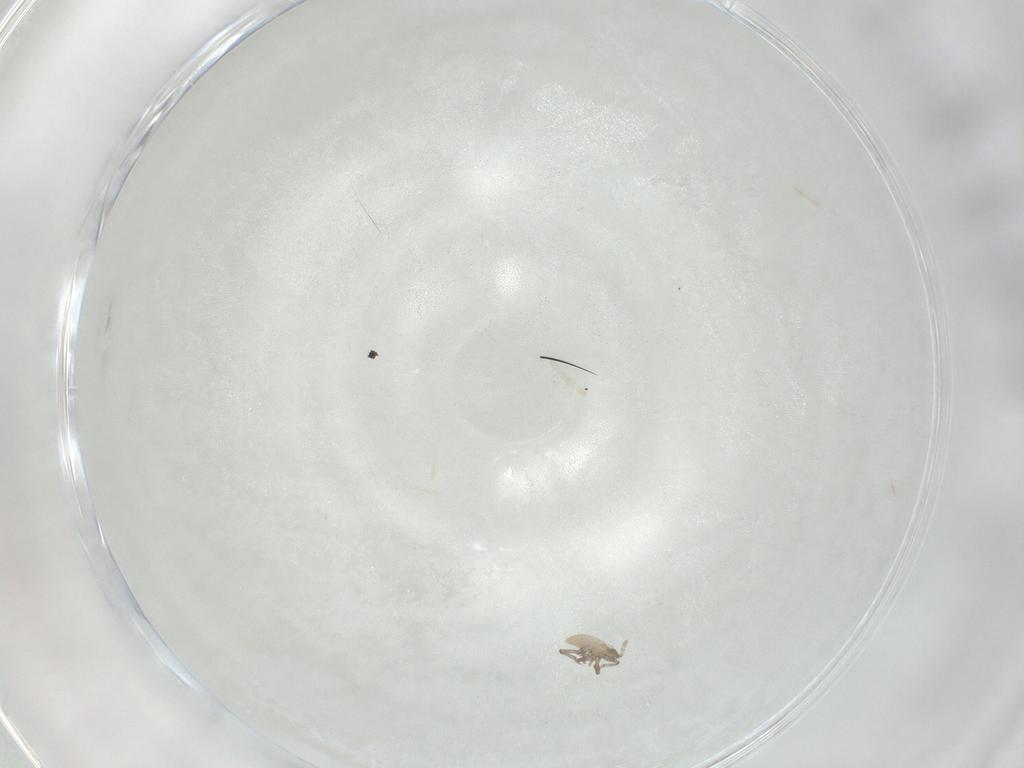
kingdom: Animalia
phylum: Arthropoda
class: Insecta
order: Hemiptera
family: Aphididae
